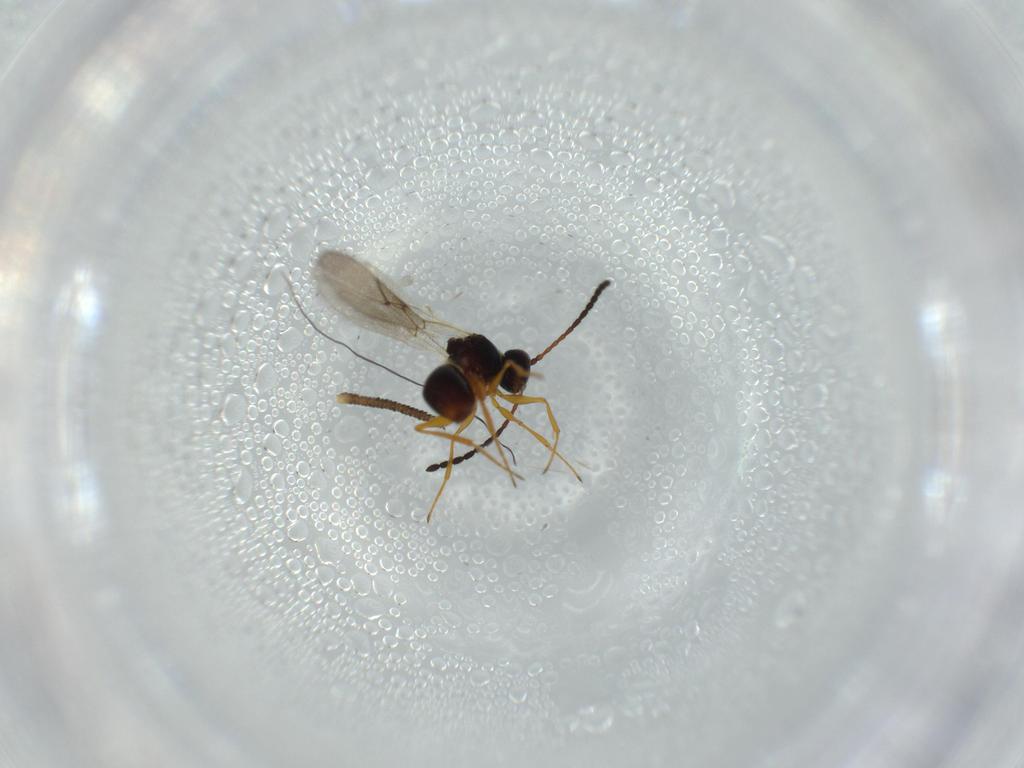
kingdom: Animalia
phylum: Arthropoda
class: Insecta
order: Hymenoptera
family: Figitidae
